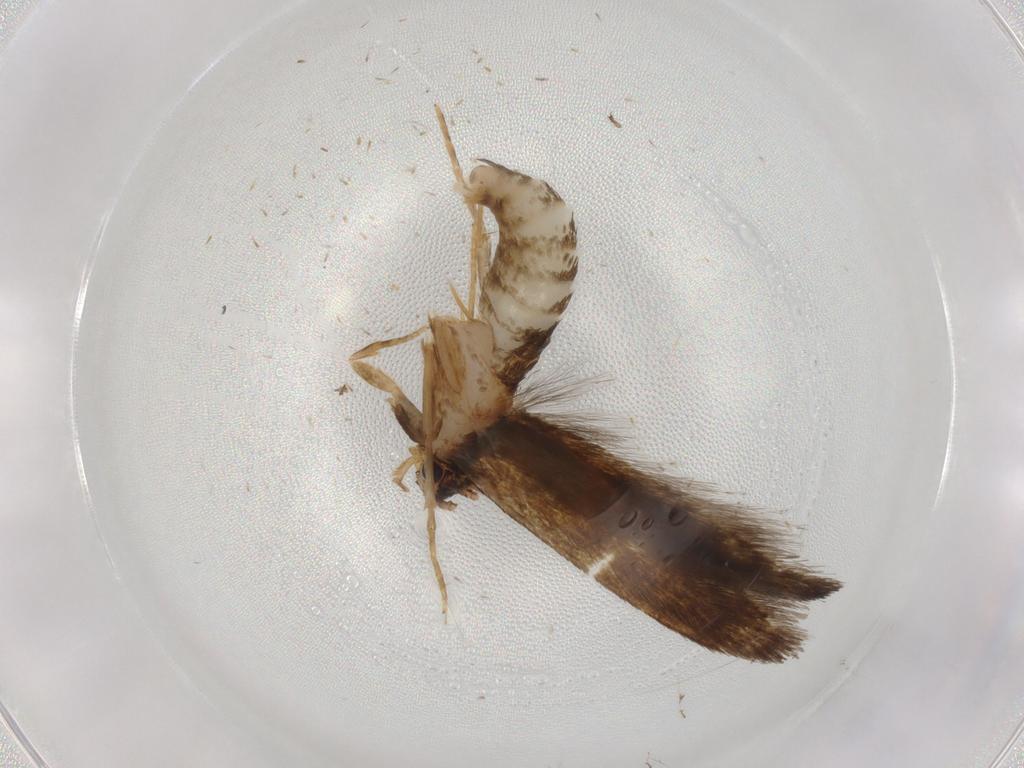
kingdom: Animalia
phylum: Arthropoda
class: Insecta
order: Lepidoptera
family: Tineidae
